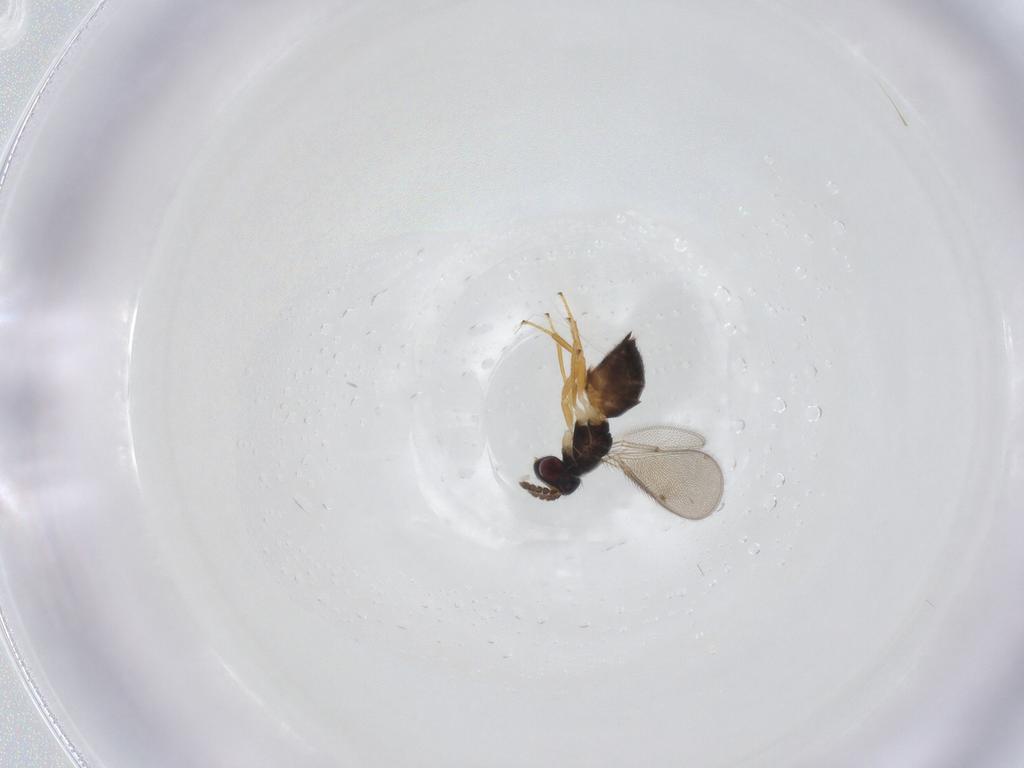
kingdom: Animalia
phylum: Arthropoda
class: Insecta
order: Hymenoptera
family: Eulophidae
